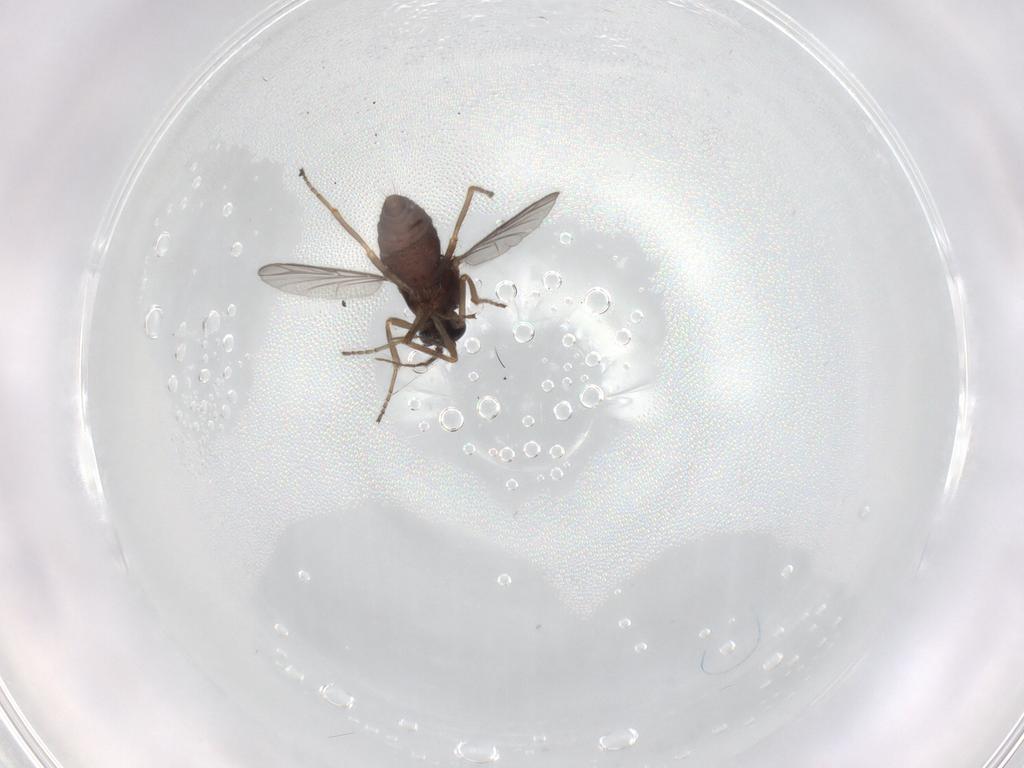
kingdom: Animalia
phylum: Arthropoda
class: Insecta
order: Diptera
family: Ceratopogonidae
